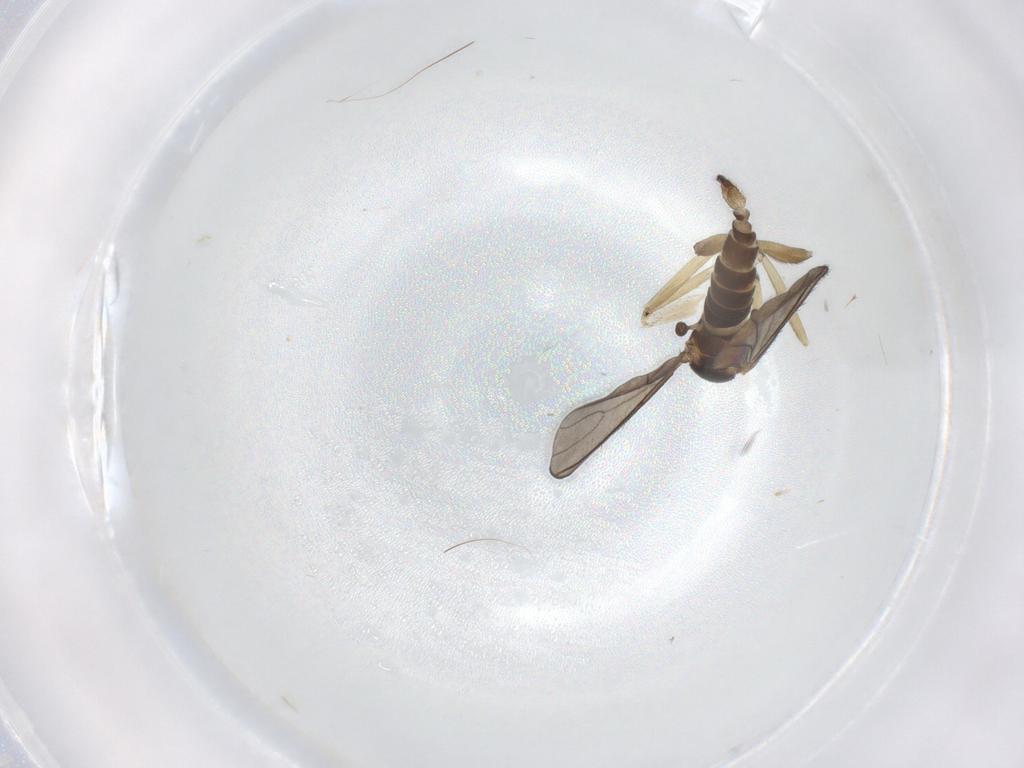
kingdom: Animalia
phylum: Arthropoda
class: Insecta
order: Diptera
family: Sciaridae
